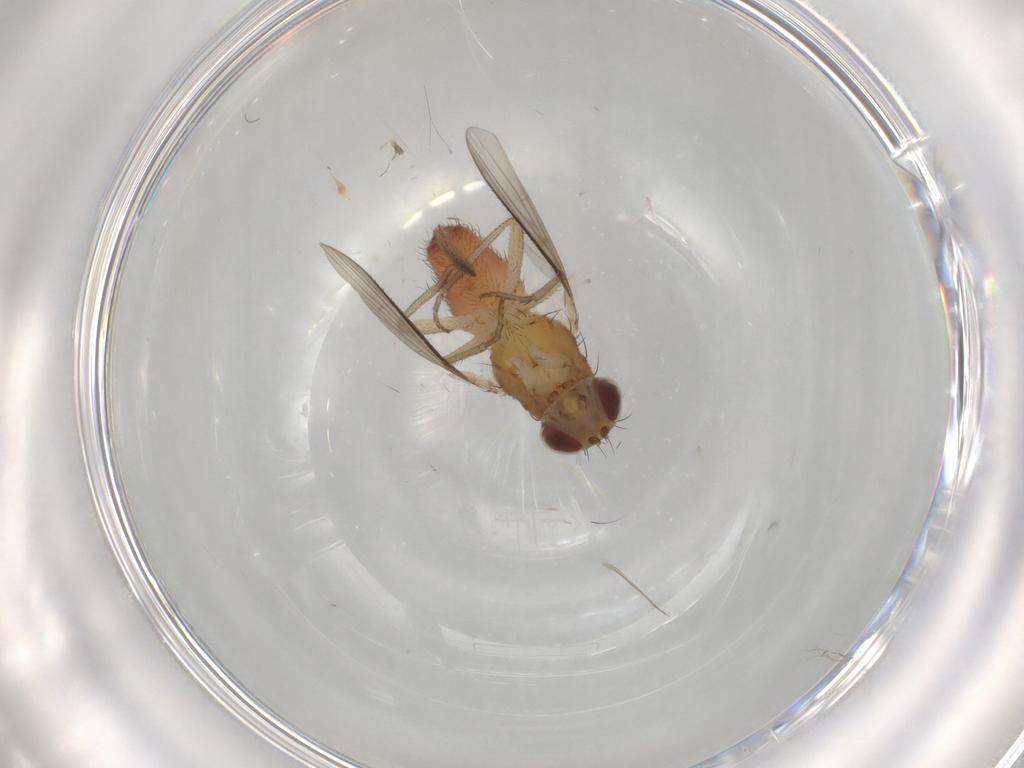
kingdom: Animalia
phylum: Arthropoda
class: Insecta
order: Diptera
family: Heleomyzidae
